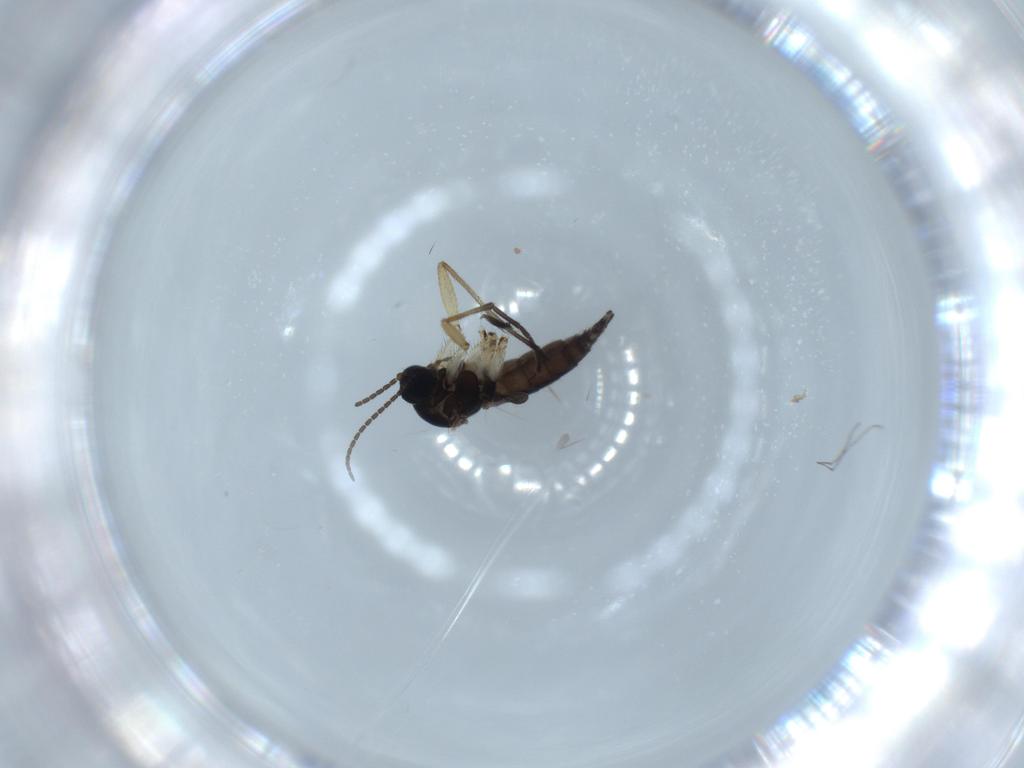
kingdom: Animalia
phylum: Arthropoda
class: Insecta
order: Diptera
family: Sciaridae
